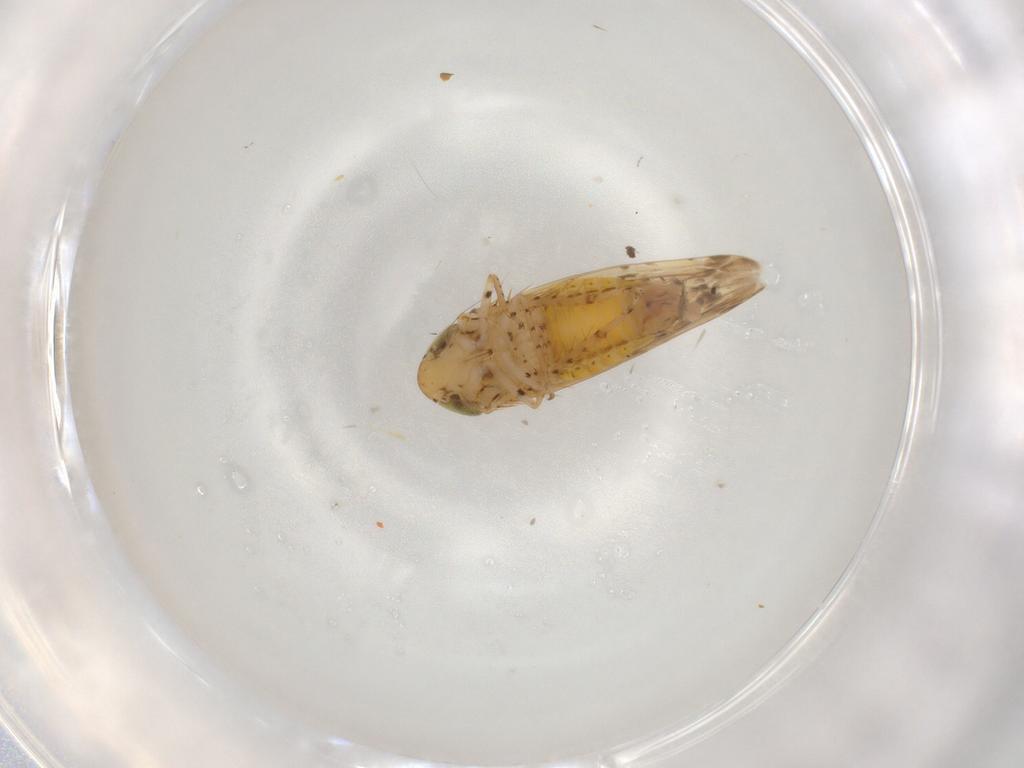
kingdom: Animalia
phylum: Arthropoda
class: Insecta
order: Hemiptera
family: Cicadellidae
